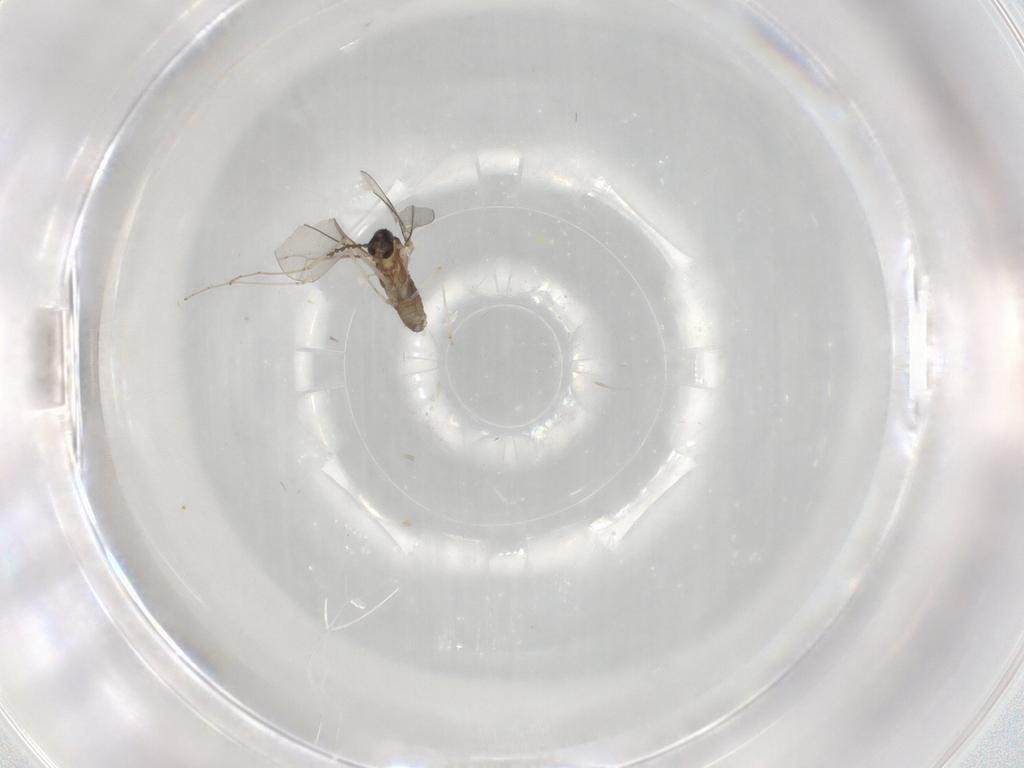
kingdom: Animalia
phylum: Arthropoda
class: Insecta
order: Diptera
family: Cecidomyiidae
